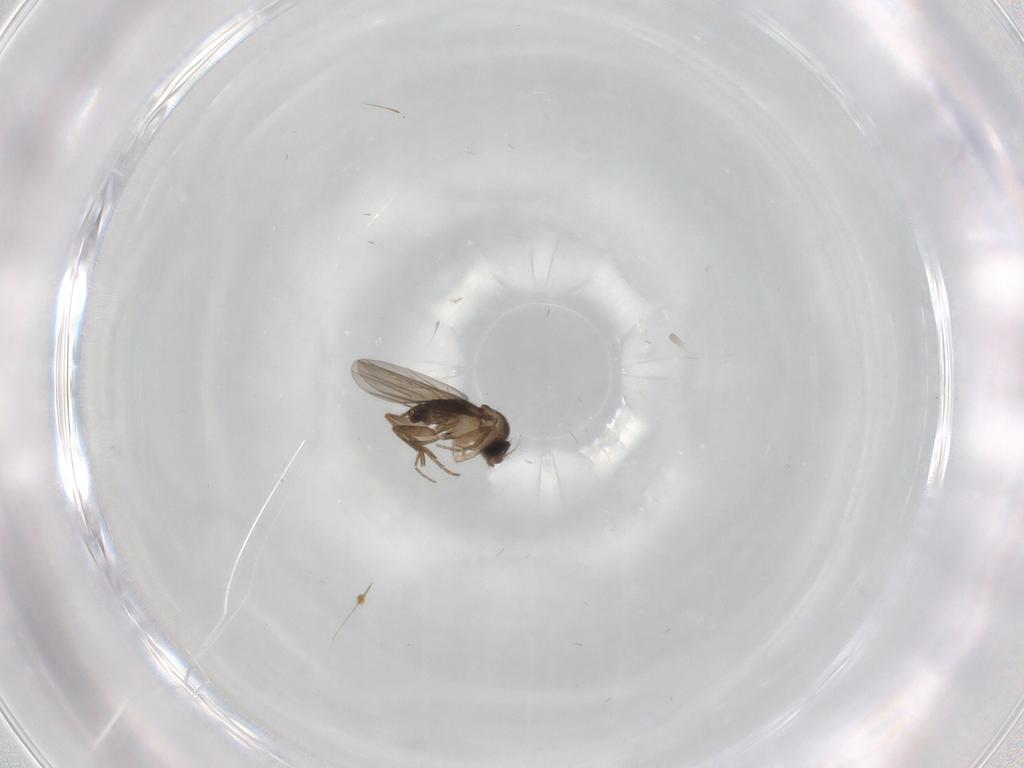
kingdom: Animalia
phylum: Arthropoda
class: Insecta
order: Diptera
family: Phoridae
